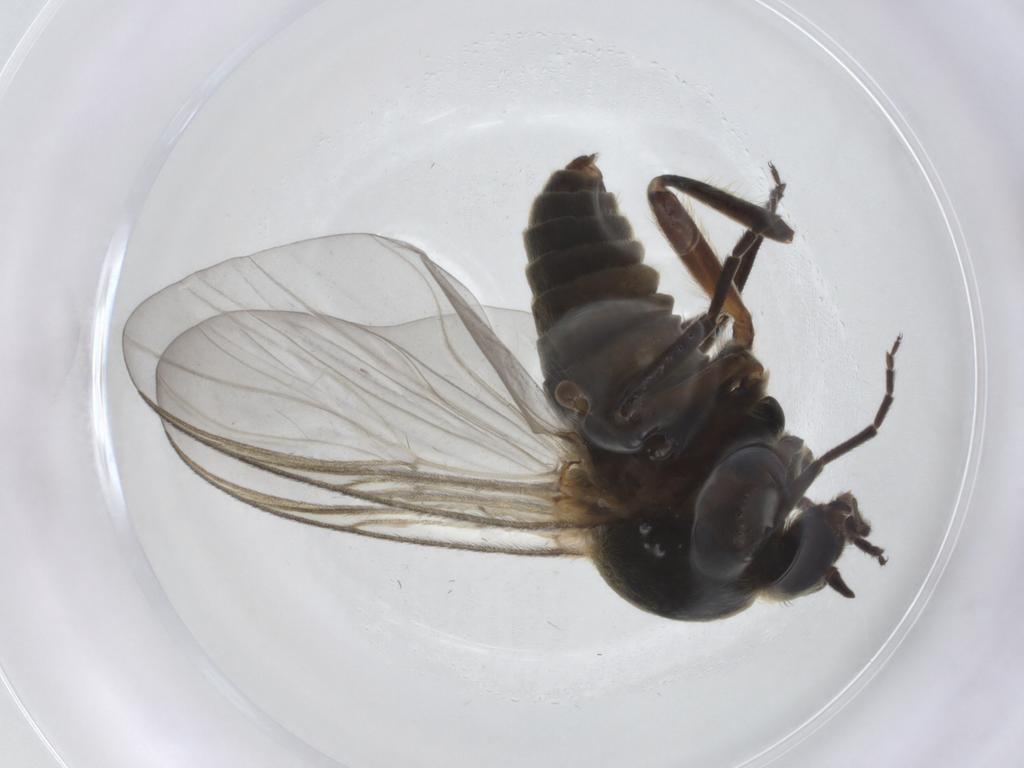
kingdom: Animalia
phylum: Arthropoda
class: Insecta
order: Diptera
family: Simuliidae
